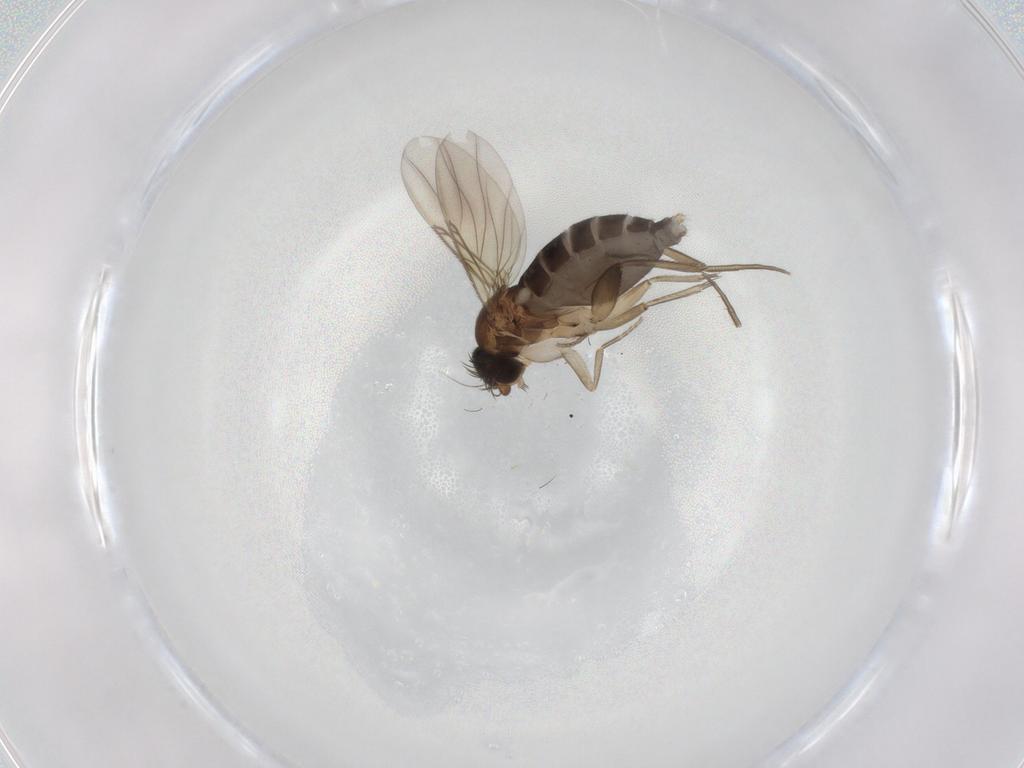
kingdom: Animalia
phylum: Arthropoda
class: Insecta
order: Diptera
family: Phoridae
